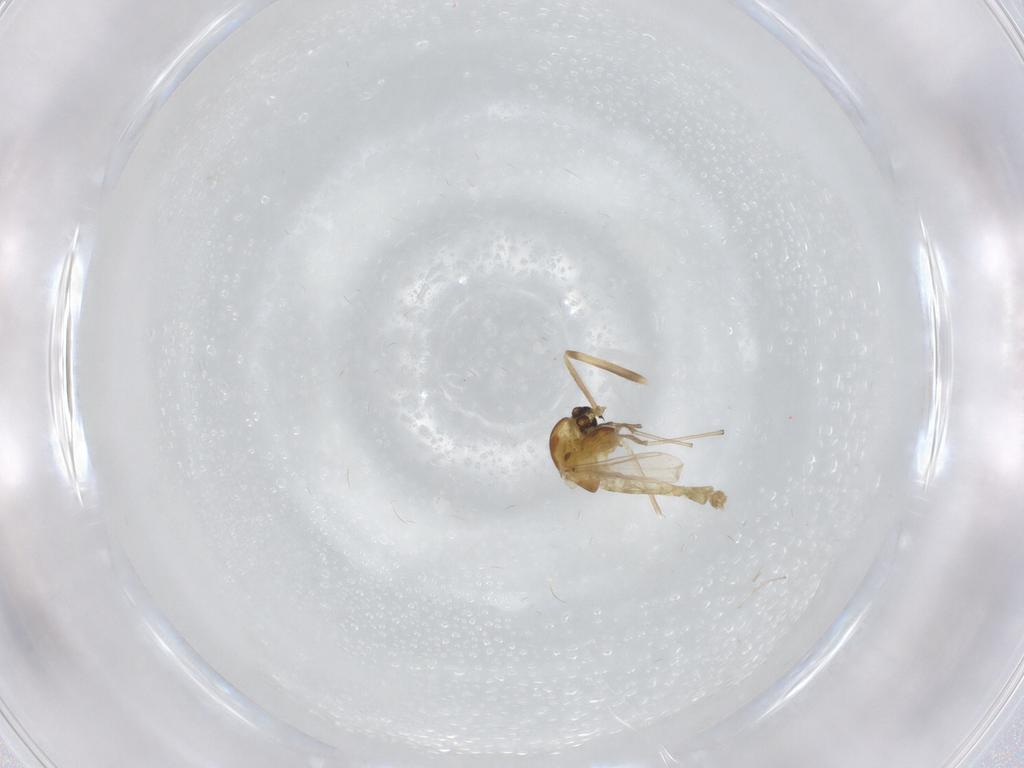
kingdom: Animalia
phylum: Arthropoda
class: Insecta
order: Diptera
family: Chironomidae
